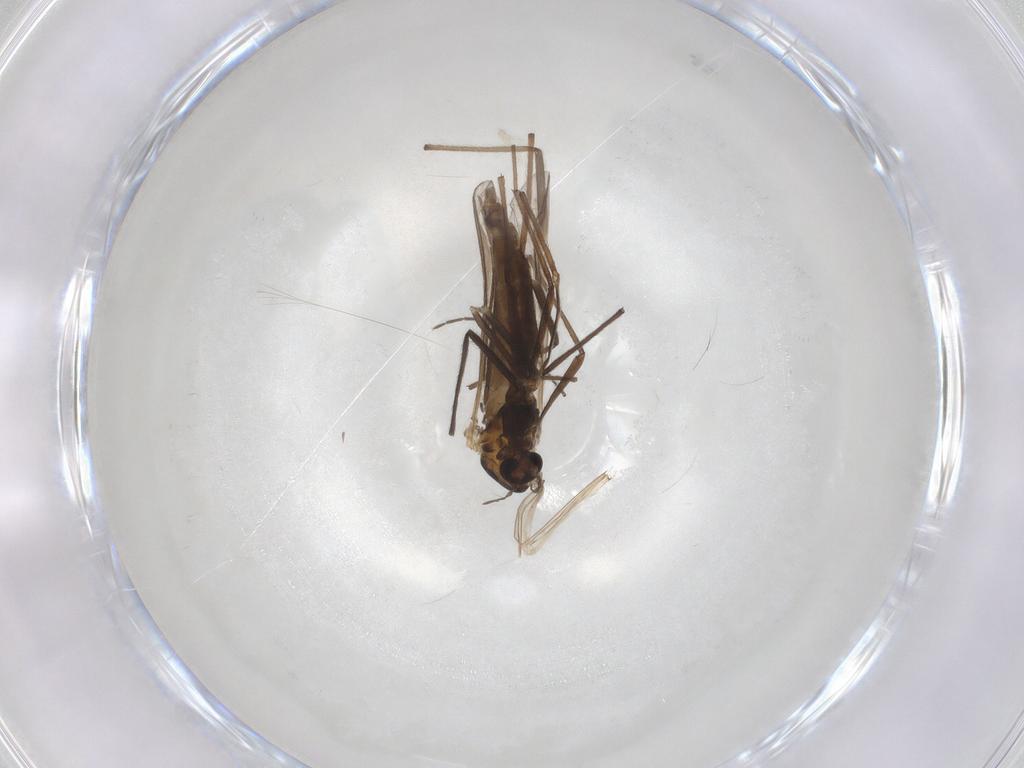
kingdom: Animalia
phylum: Arthropoda
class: Insecta
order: Diptera
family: Chironomidae
